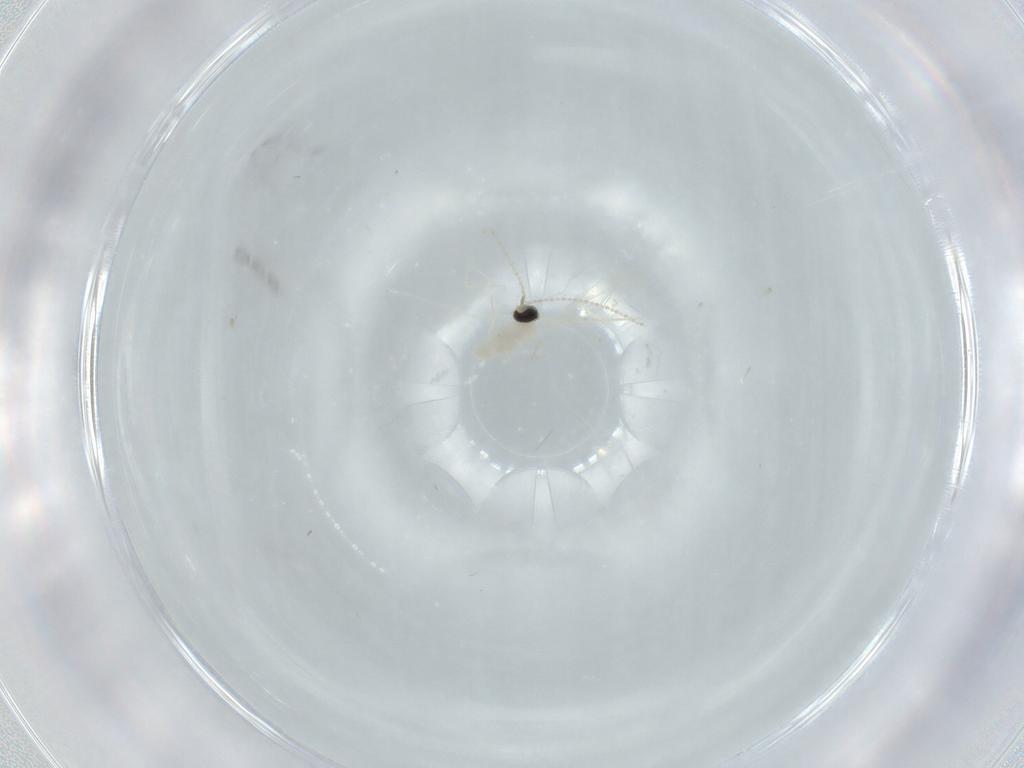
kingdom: Animalia
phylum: Arthropoda
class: Insecta
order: Diptera
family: Cecidomyiidae
